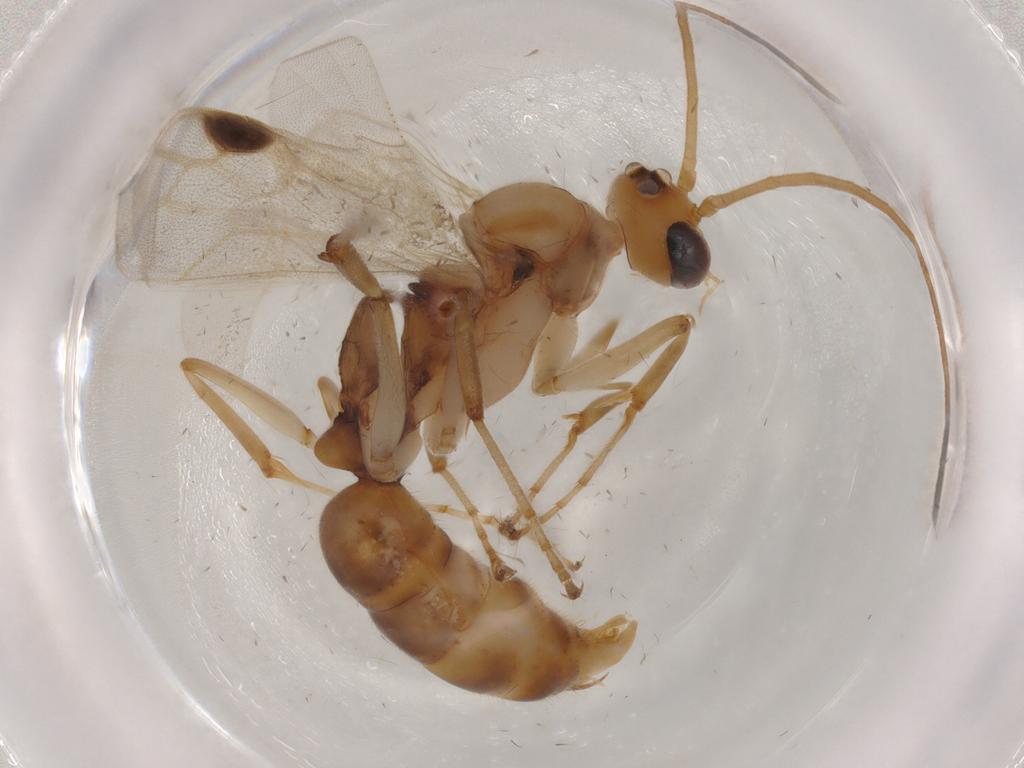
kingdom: Animalia
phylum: Arthropoda
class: Insecta
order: Hymenoptera
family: Formicidae
